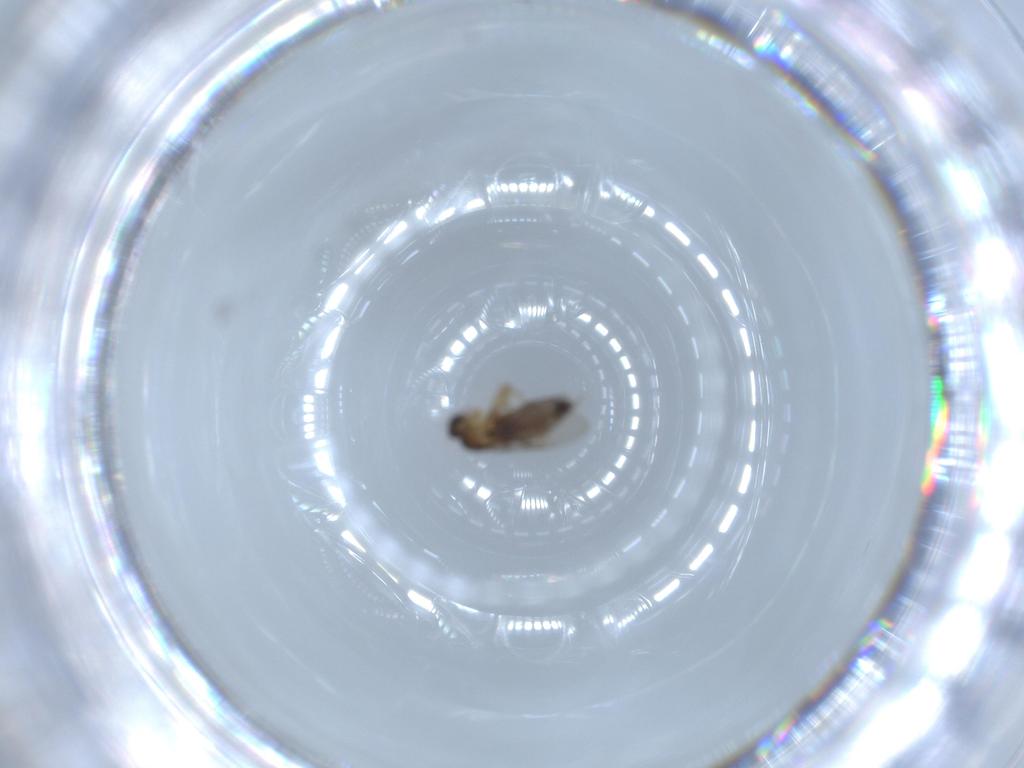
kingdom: Animalia
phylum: Arthropoda
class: Insecta
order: Diptera
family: Phoridae
